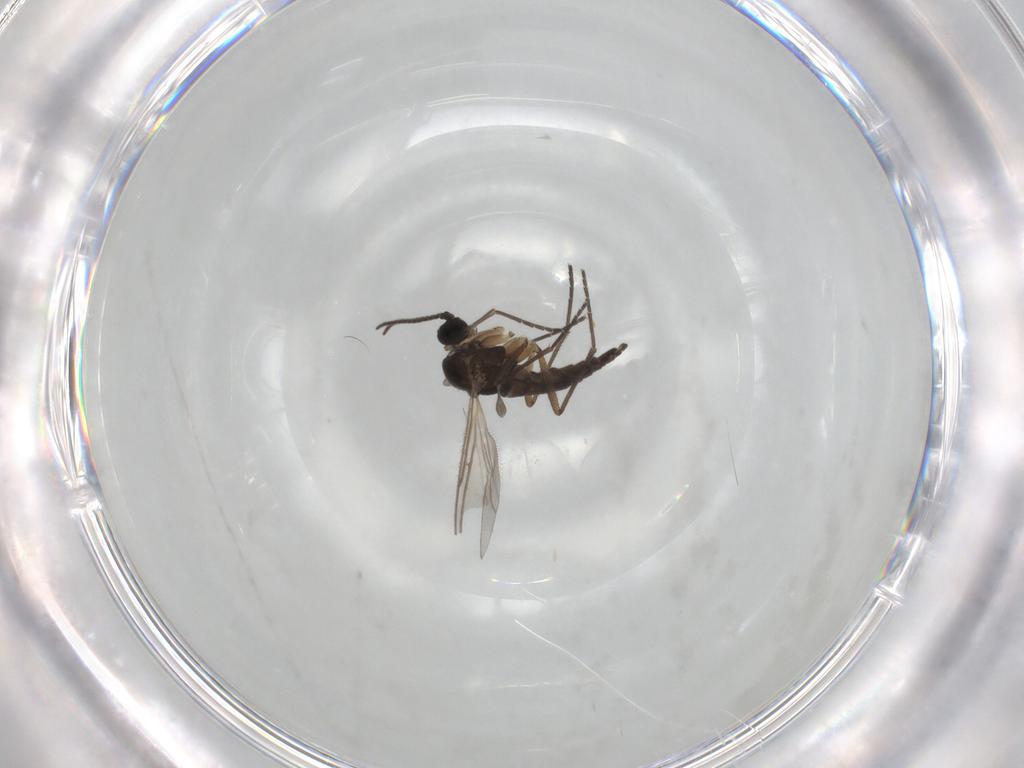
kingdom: Animalia
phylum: Arthropoda
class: Insecta
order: Diptera
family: Sciaridae
